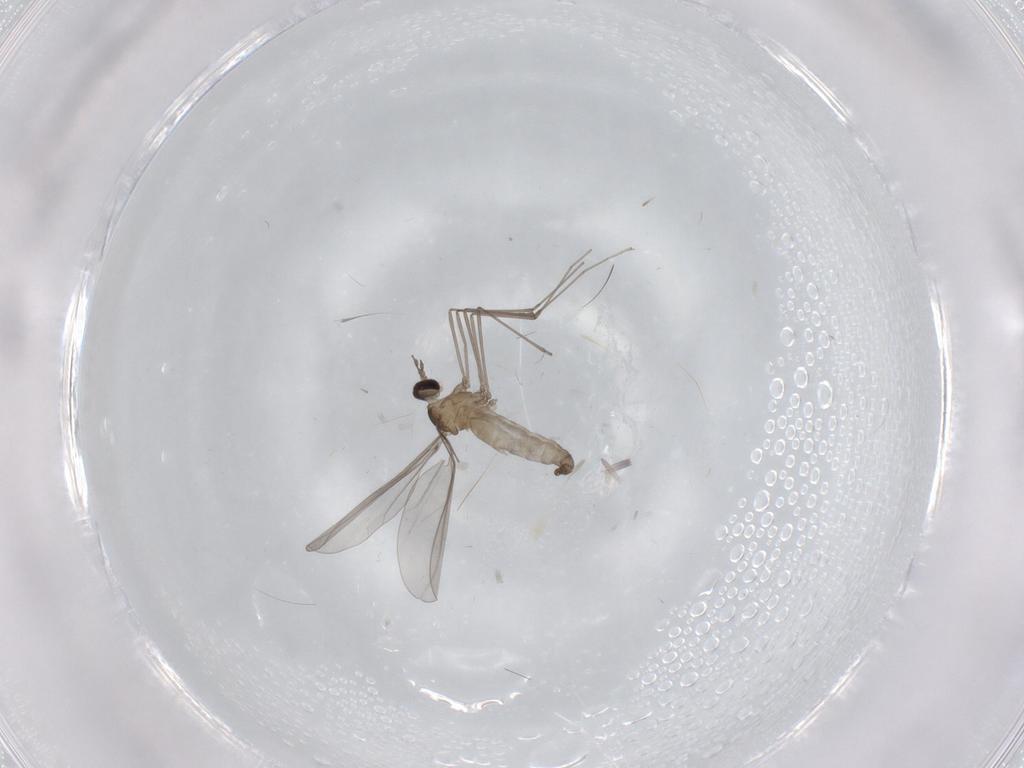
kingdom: Animalia
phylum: Arthropoda
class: Insecta
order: Diptera
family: Cecidomyiidae
